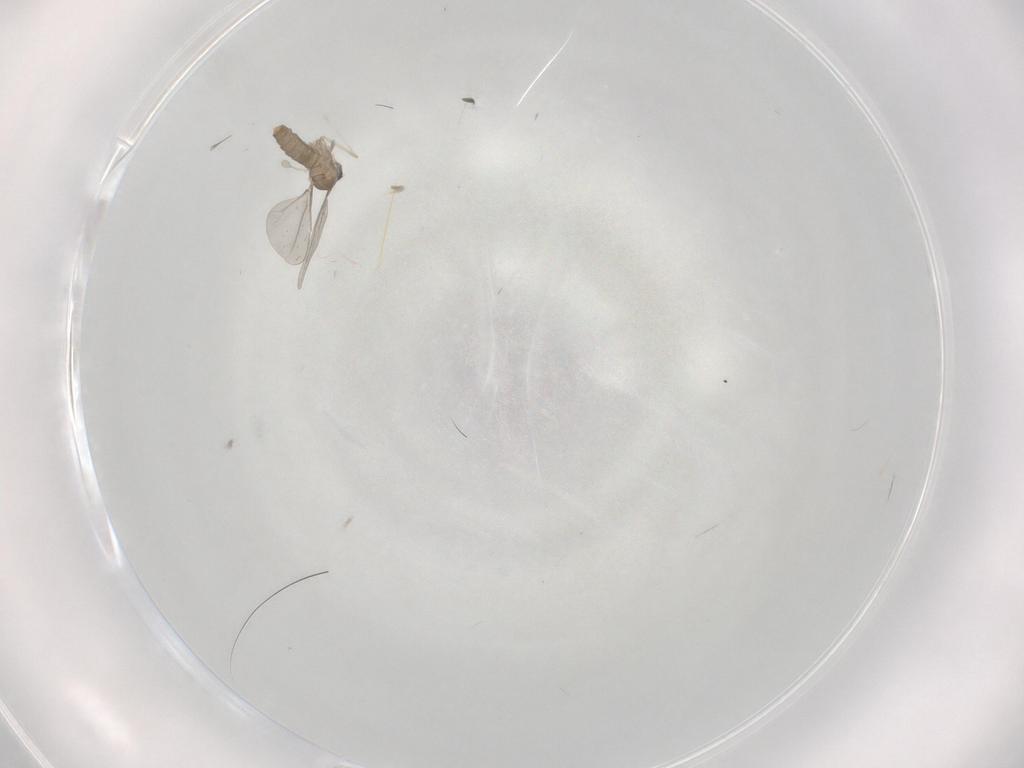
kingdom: Animalia
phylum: Arthropoda
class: Insecta
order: Diptera
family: Cecidomyiidae
